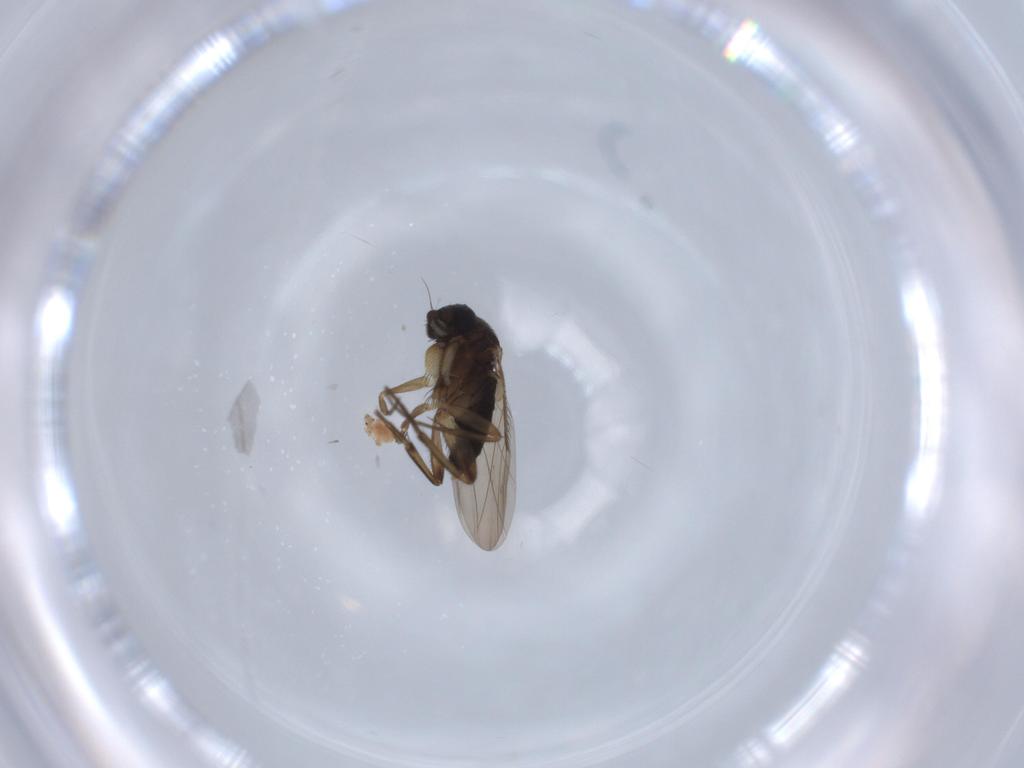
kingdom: Animalia
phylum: Arthropoda
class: Insecta
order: Diptera
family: Phoridae
